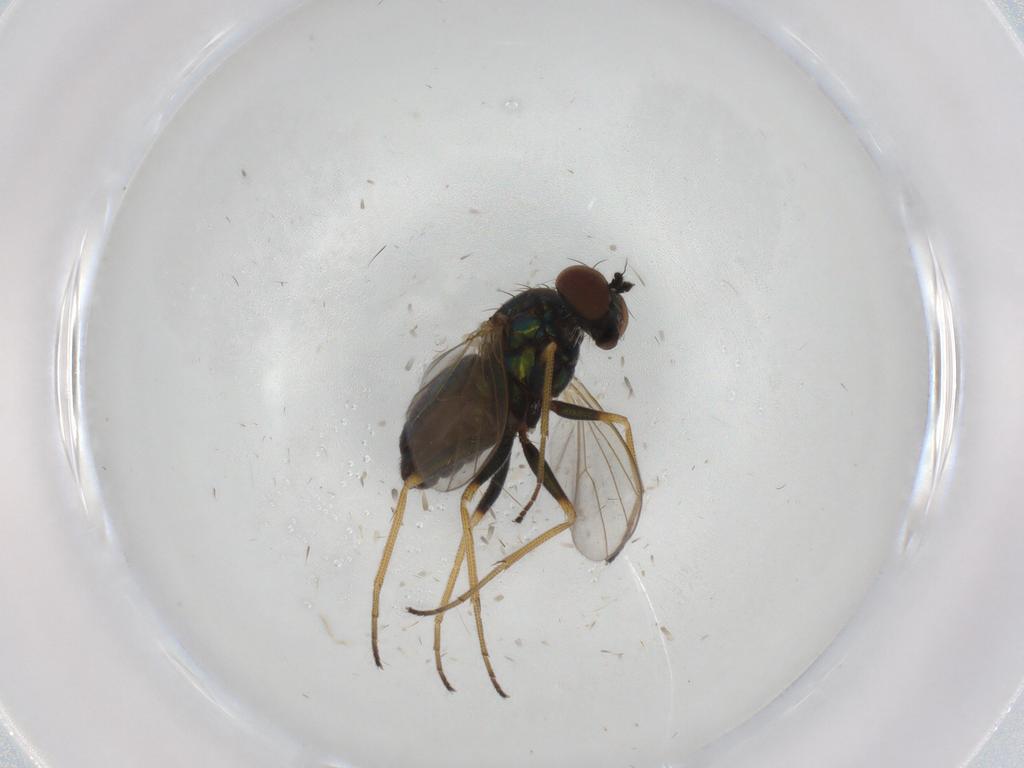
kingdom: Animalia
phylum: Arthropoda
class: Insecta
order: Diptera
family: Dolichopodidae
